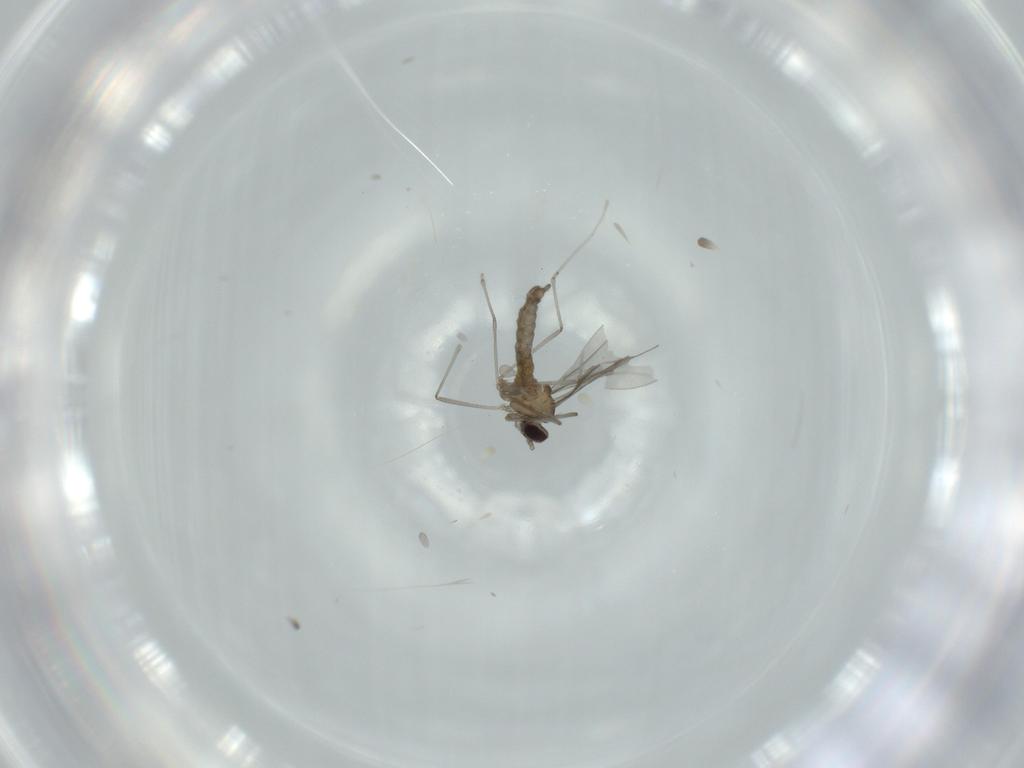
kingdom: Animalia
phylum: Arthropoda
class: Insecta
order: Diptera
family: Cecidomyiidae
